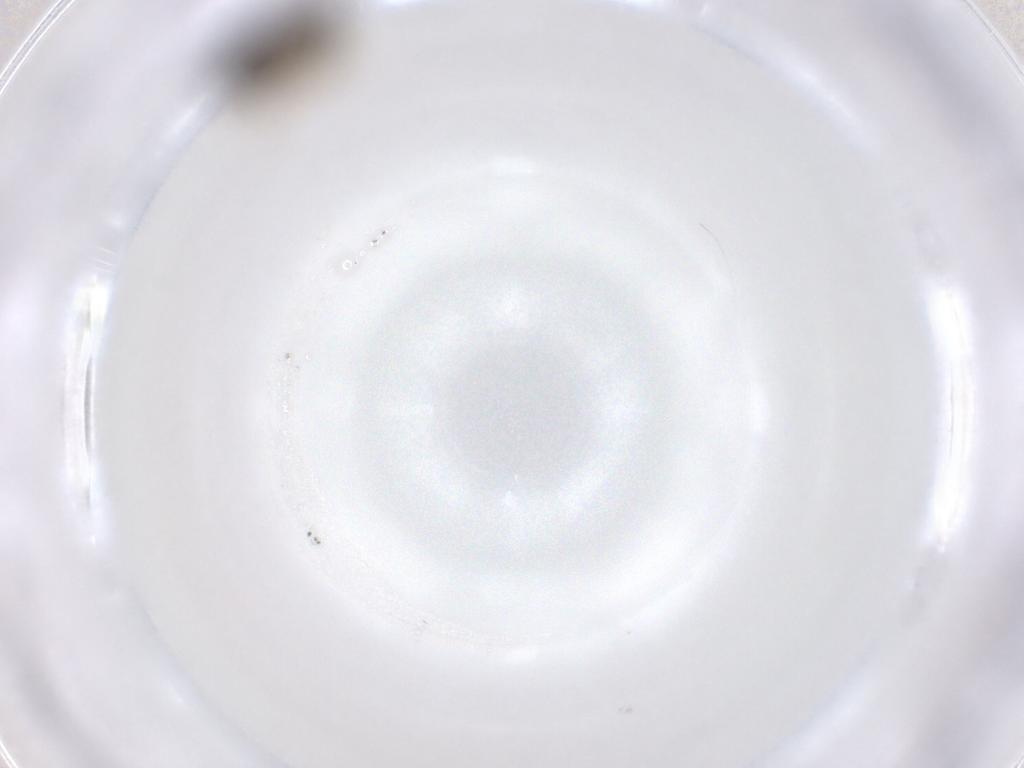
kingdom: Animalia
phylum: Arthropoda
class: Insecta
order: Diptera
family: Ceratopogonidae
